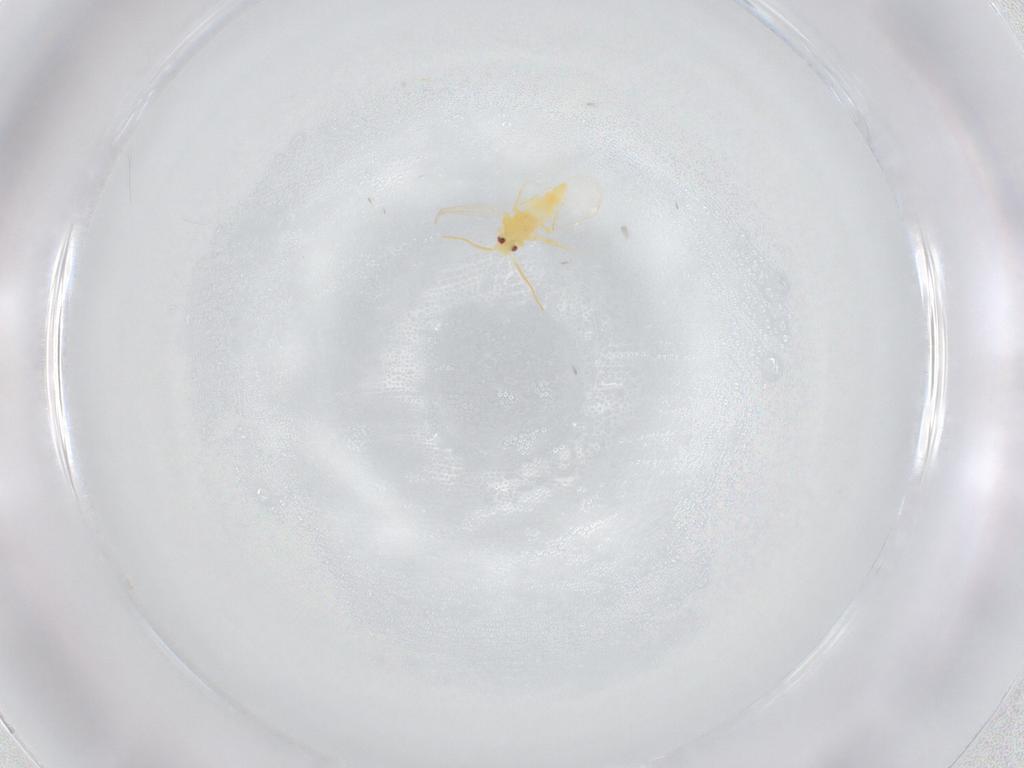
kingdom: Animalia
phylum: Arthropoda
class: Insecta
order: Hemiptera
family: Aleyrodidae
